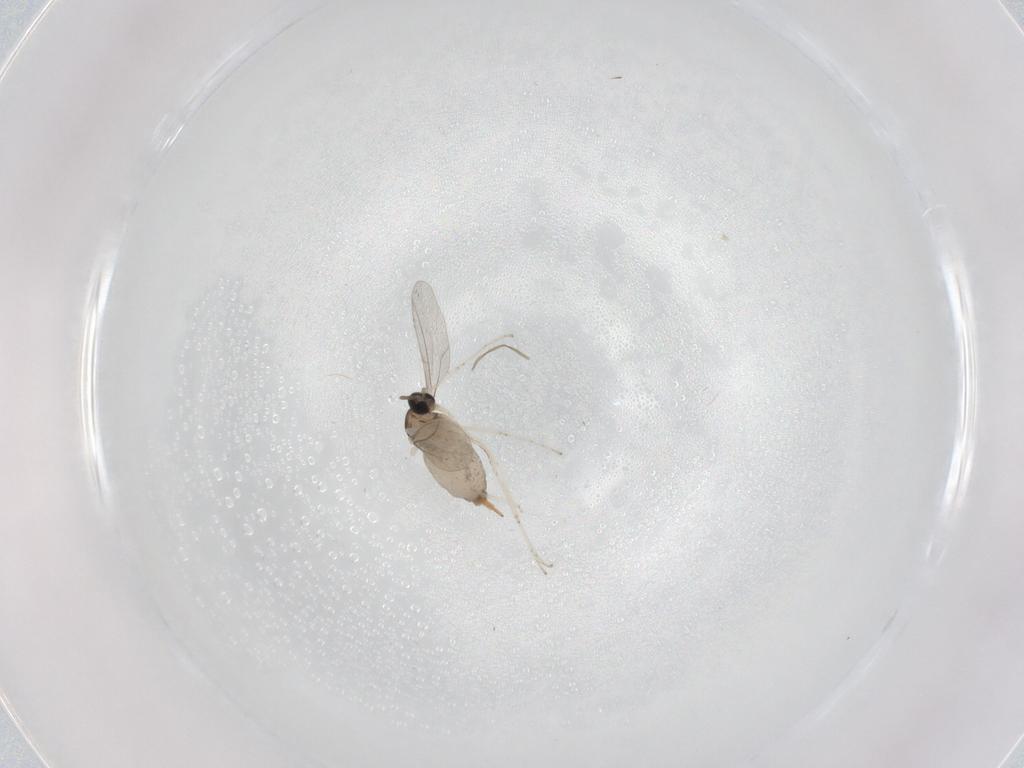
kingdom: Animalia
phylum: Arthropoda
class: Insecta
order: Diptera
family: Cecidomyiidae
